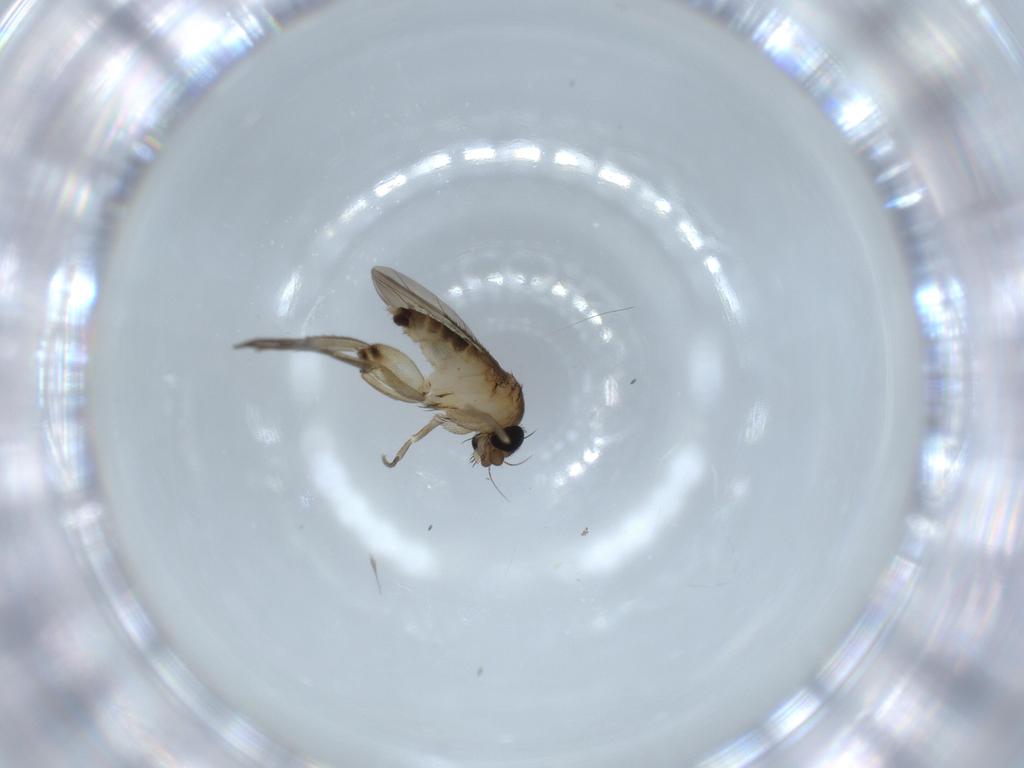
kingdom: Animalia
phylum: Arthropoda
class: Insecta
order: Diptera
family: Phoridae
